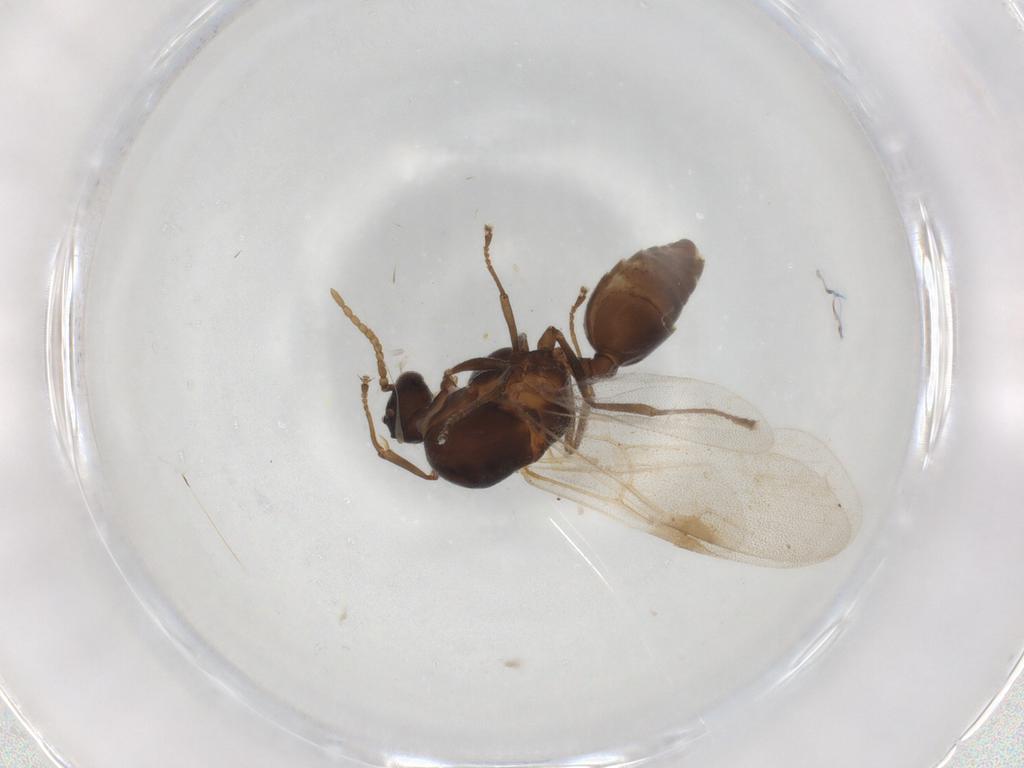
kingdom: Animalia
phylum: Arthropoda
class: Insecta
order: Hymenoptera
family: Formicidae
